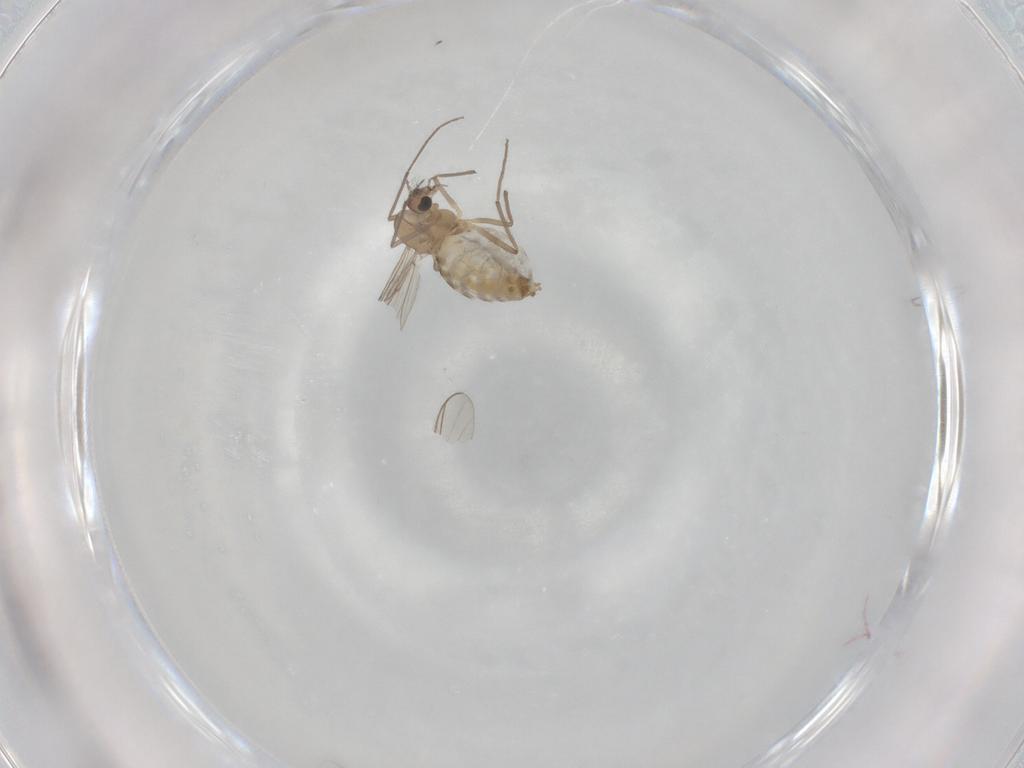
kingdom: Animalia
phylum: Arthropoda
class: Insecta
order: Diptera
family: Chironomidae
